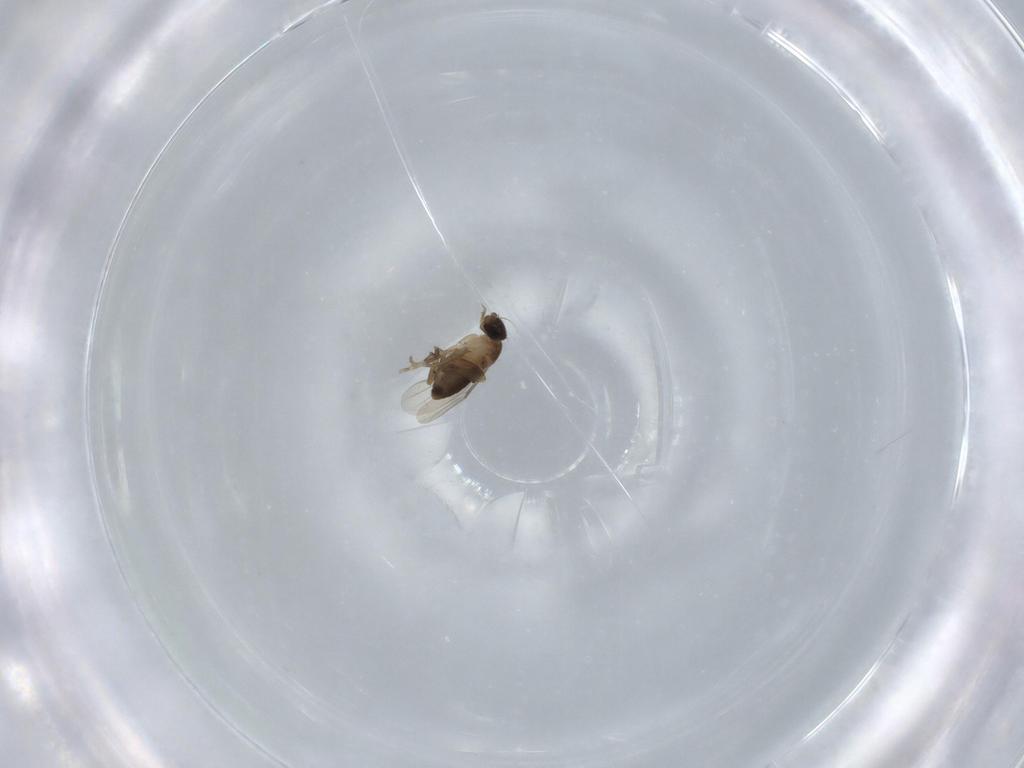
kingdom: Animalia
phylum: Arthropoda
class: Insecta
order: Diptera
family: Phoridae
